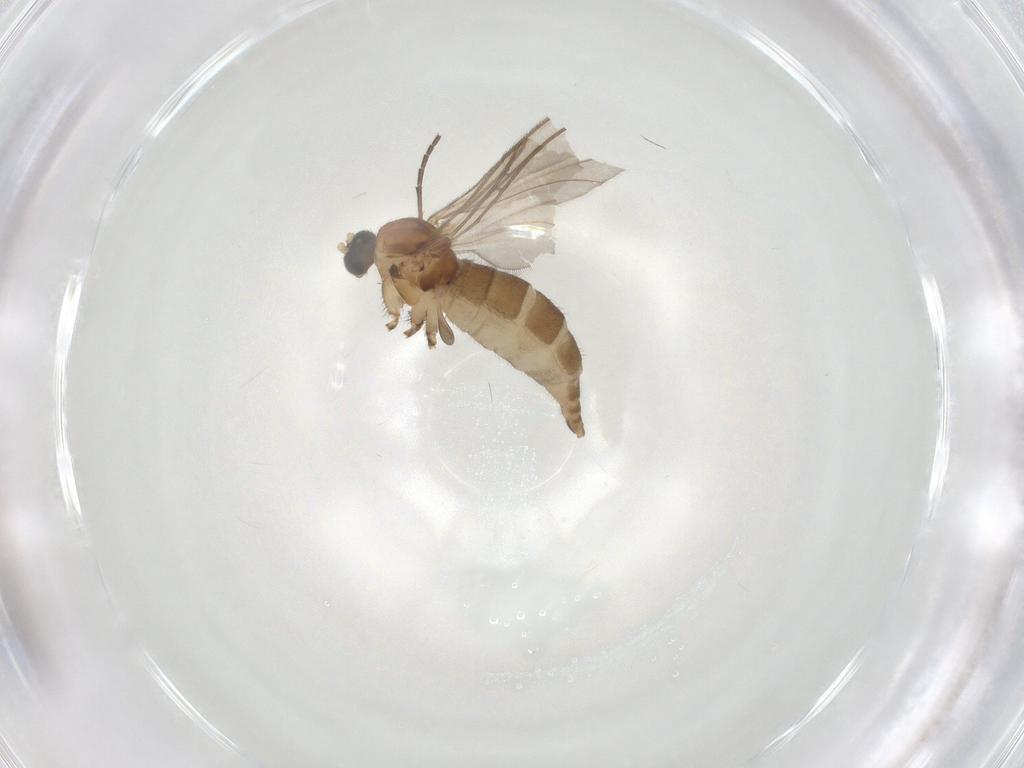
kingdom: Animalia
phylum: Arthropoda
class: Insecta
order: Diptera
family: Sciaridae
